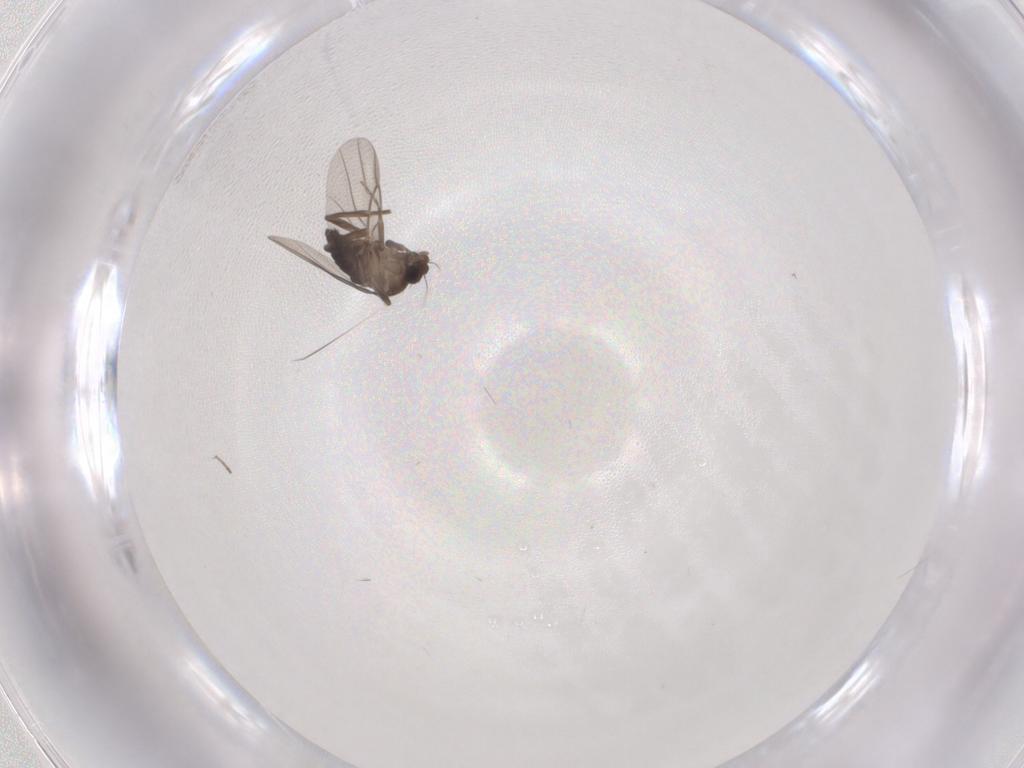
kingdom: Animalia
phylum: Arthropoda
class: Insecta
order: Diptera
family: Phoridae
